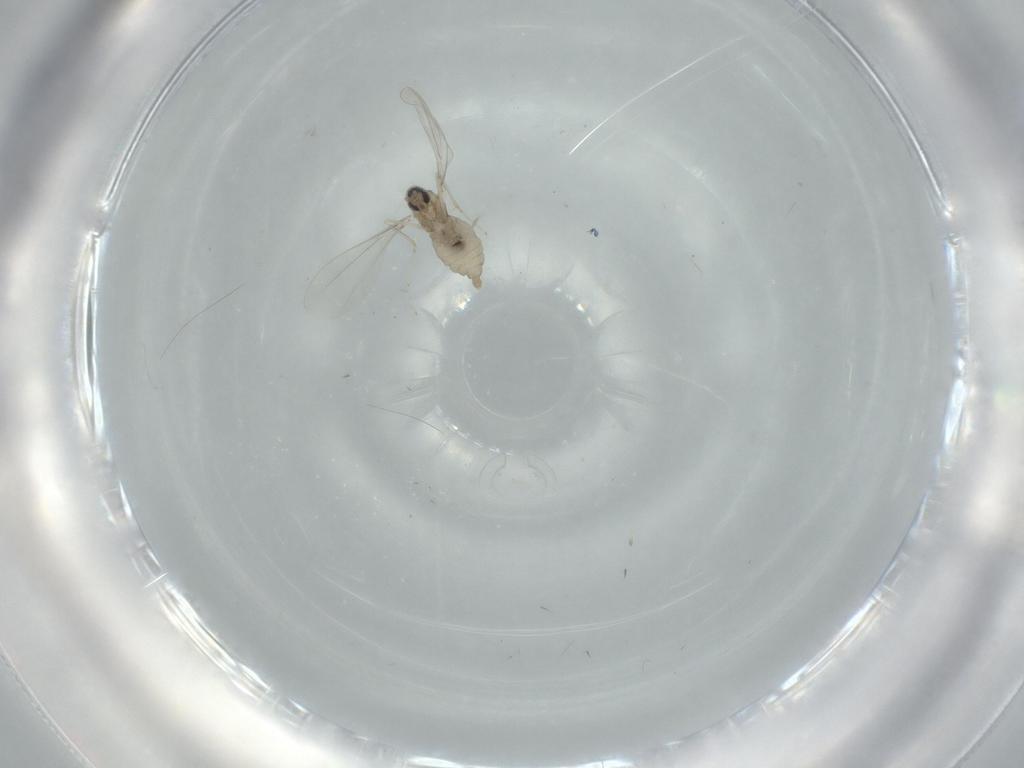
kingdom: Animalia
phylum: Arthropoda
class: Insecta
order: Diptera
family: Cecidomyiidae
